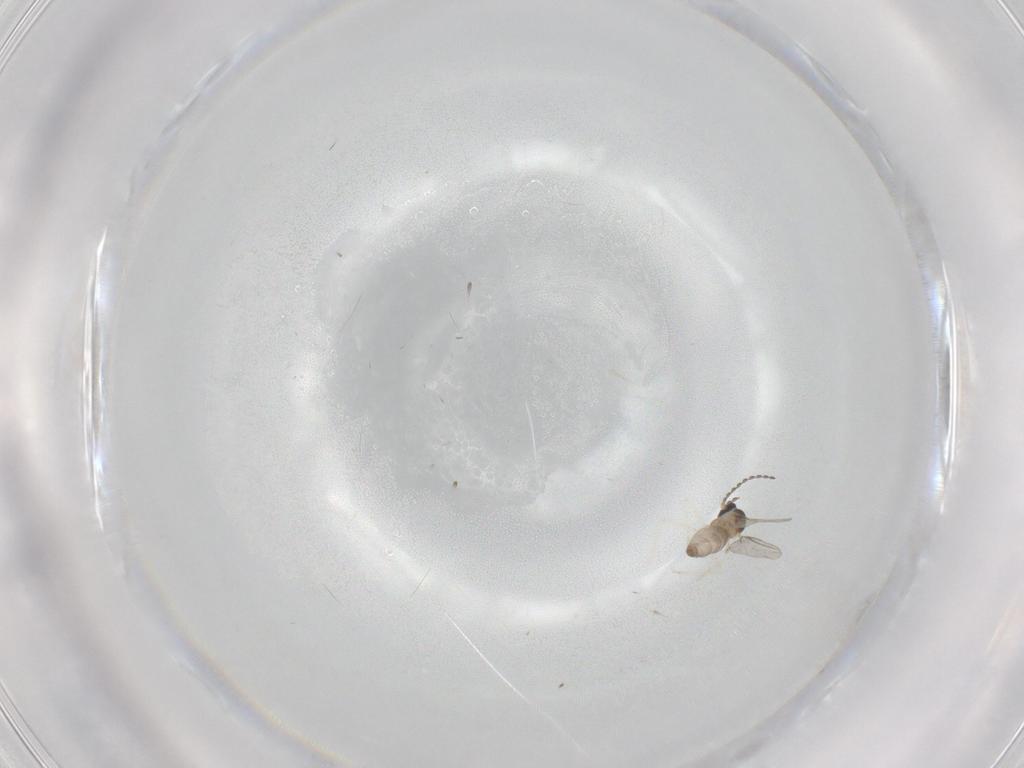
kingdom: Animalia
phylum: Arthropoda
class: Insecta
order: Diptera
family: Cecidomyiidae
